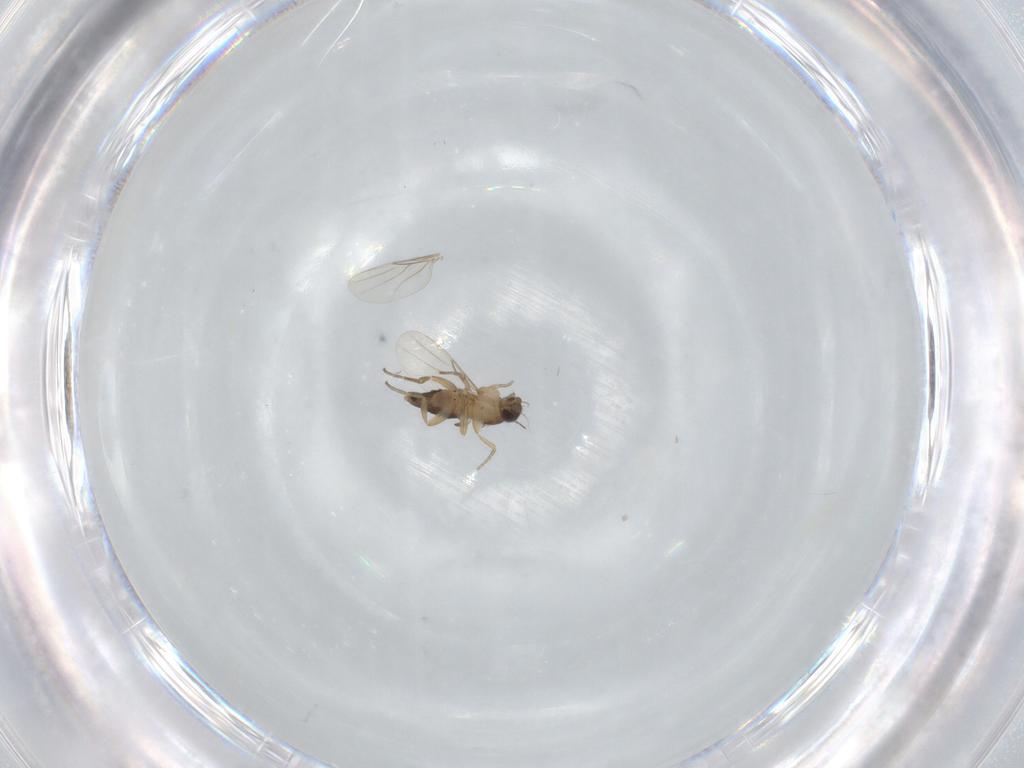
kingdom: Animalia
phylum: Arthropoda
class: Insecta
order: Diptera
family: Phoridae
